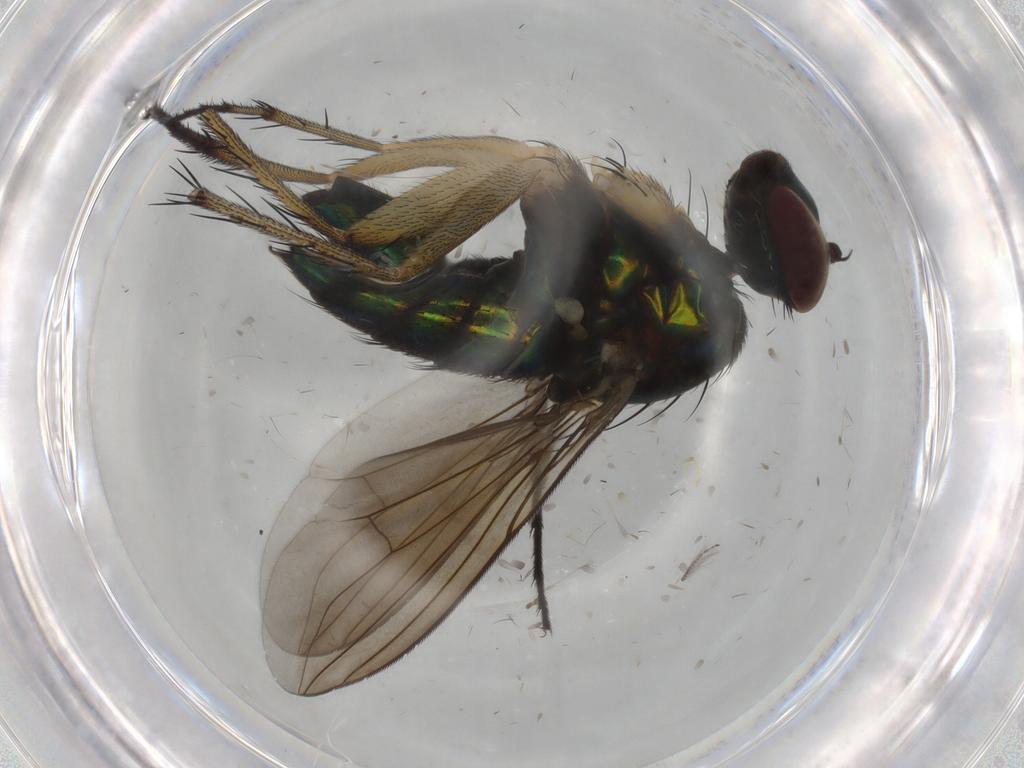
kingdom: Animalia
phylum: Arthropoda
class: Insecta
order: Diptera
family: Dolichopodidae
